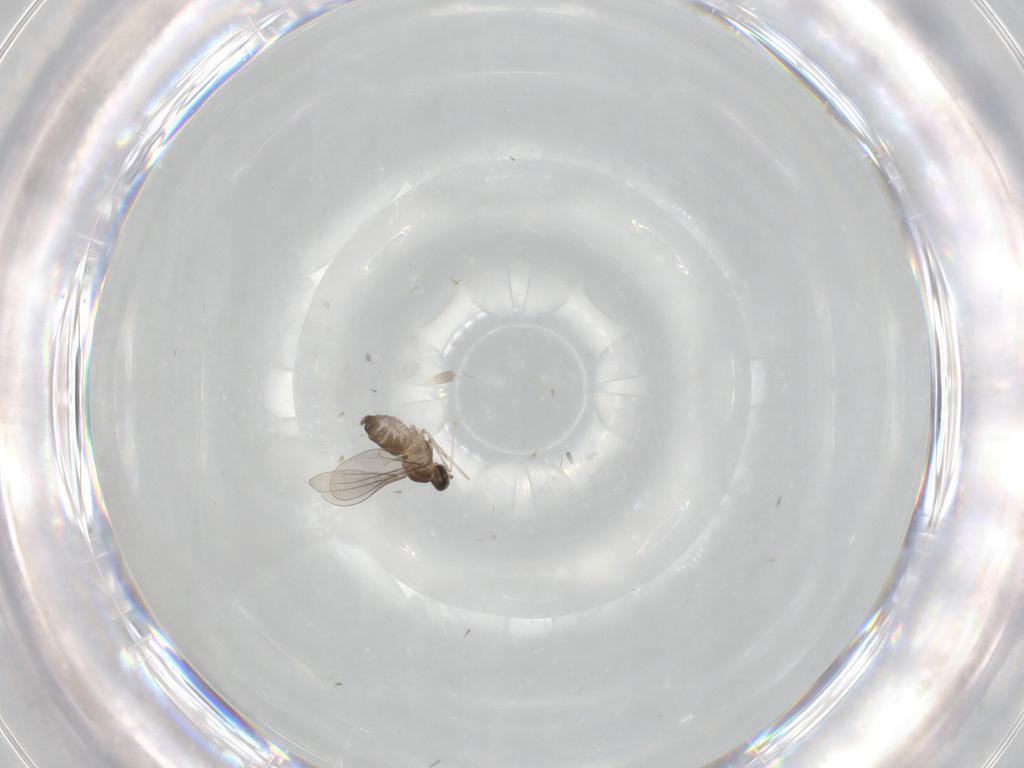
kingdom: Animalia
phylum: Arthropoda
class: Insecta
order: Diptera
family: Cecidomyiidae
